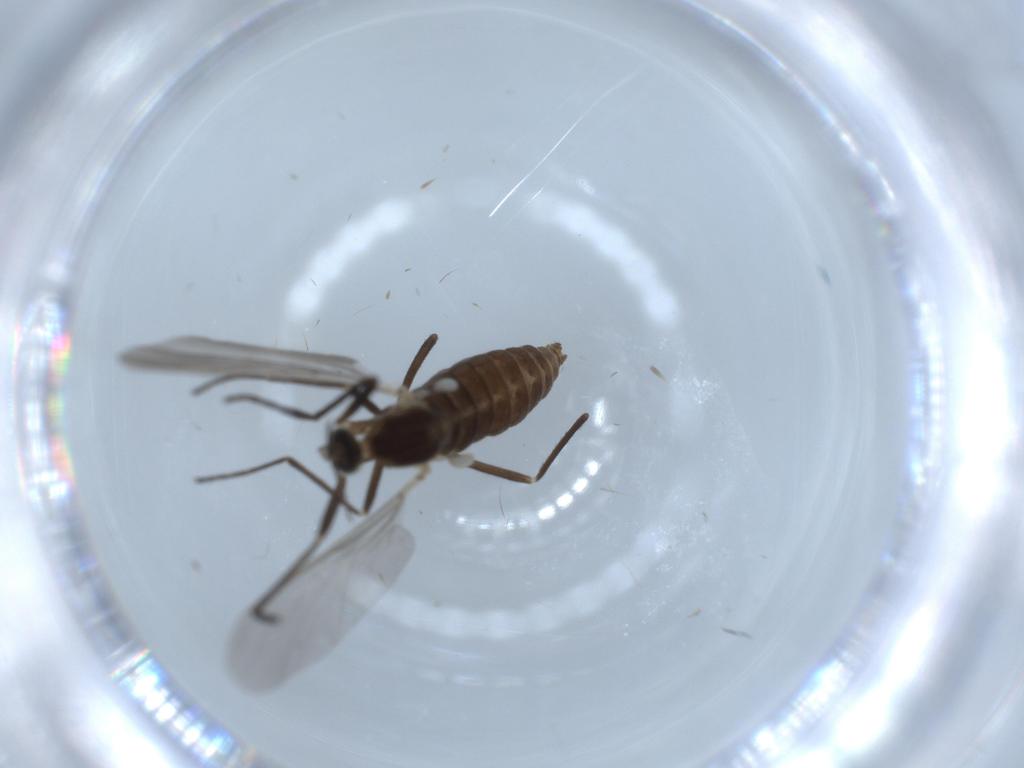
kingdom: Animalia
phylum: Arthropoda
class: Insecta
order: Diptera
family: Cecidomyiidae
